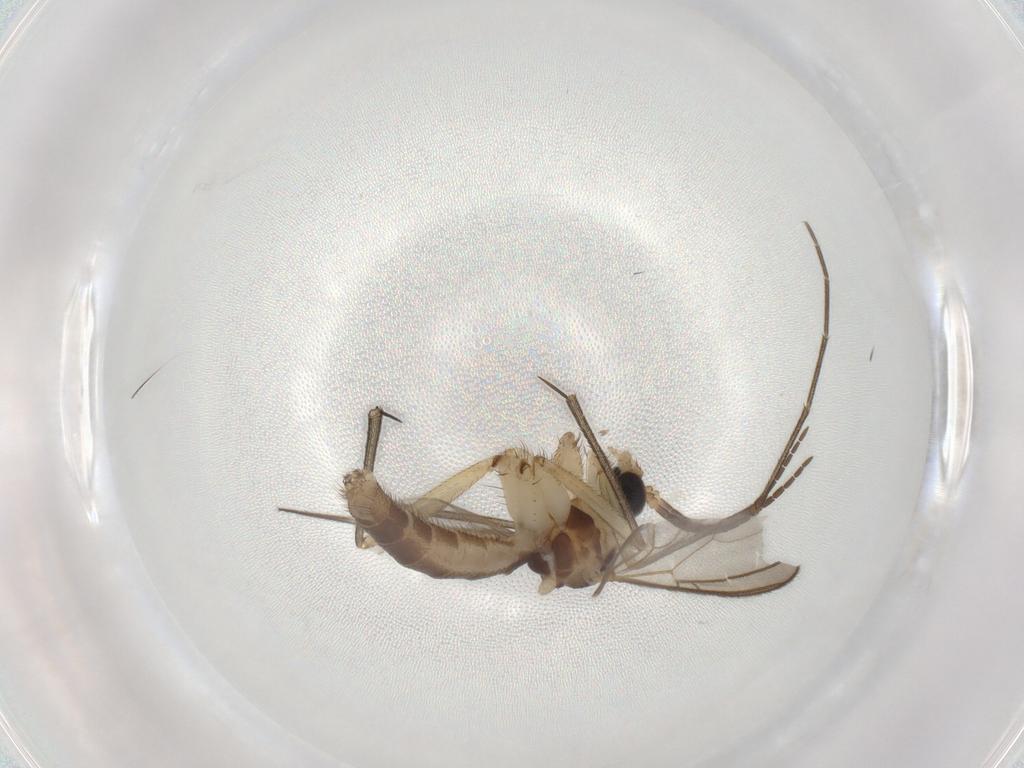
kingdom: Animalia
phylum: Arthropoda
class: Insecta
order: Diptera
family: Mycetophilidae
